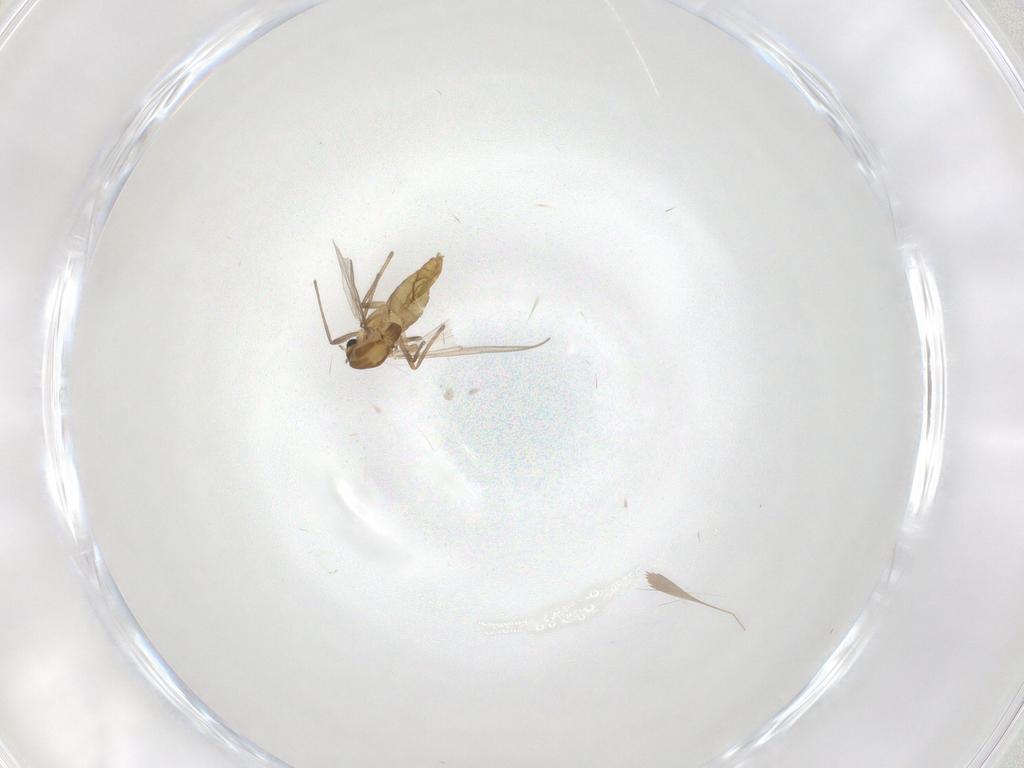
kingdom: Animalia
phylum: Arthropoda
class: Insecta
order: Diptera
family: Chironomidae
